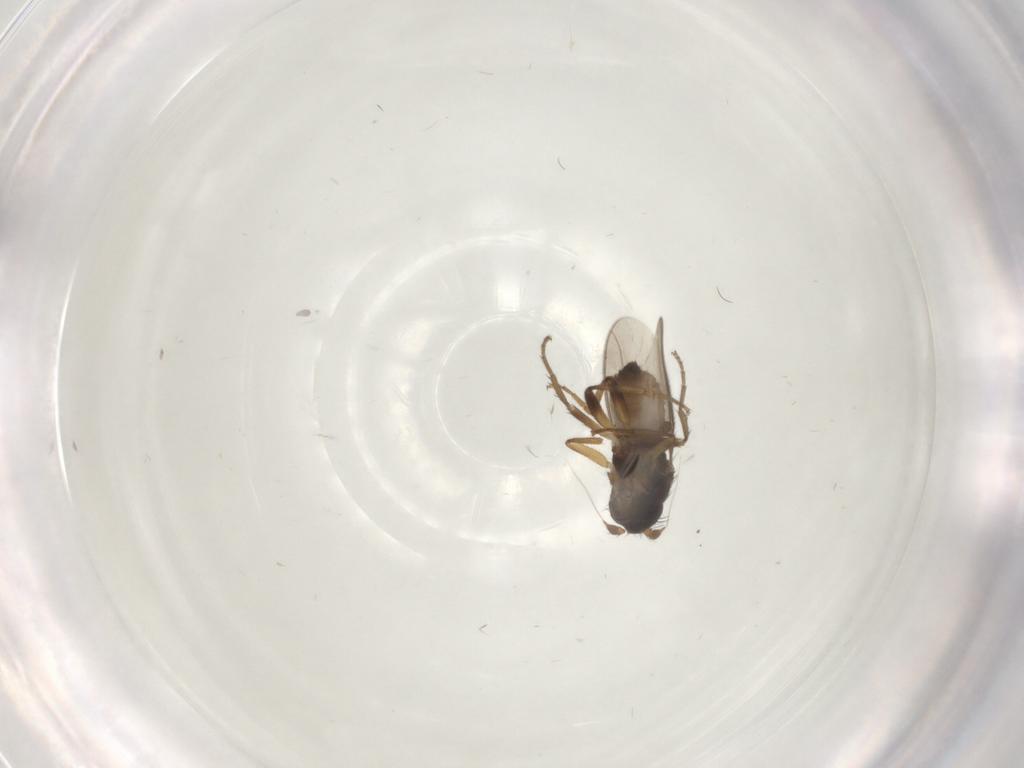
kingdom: Animalia
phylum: Arthropoda
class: Insecta
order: Diptera
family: Sphaeroceridae
